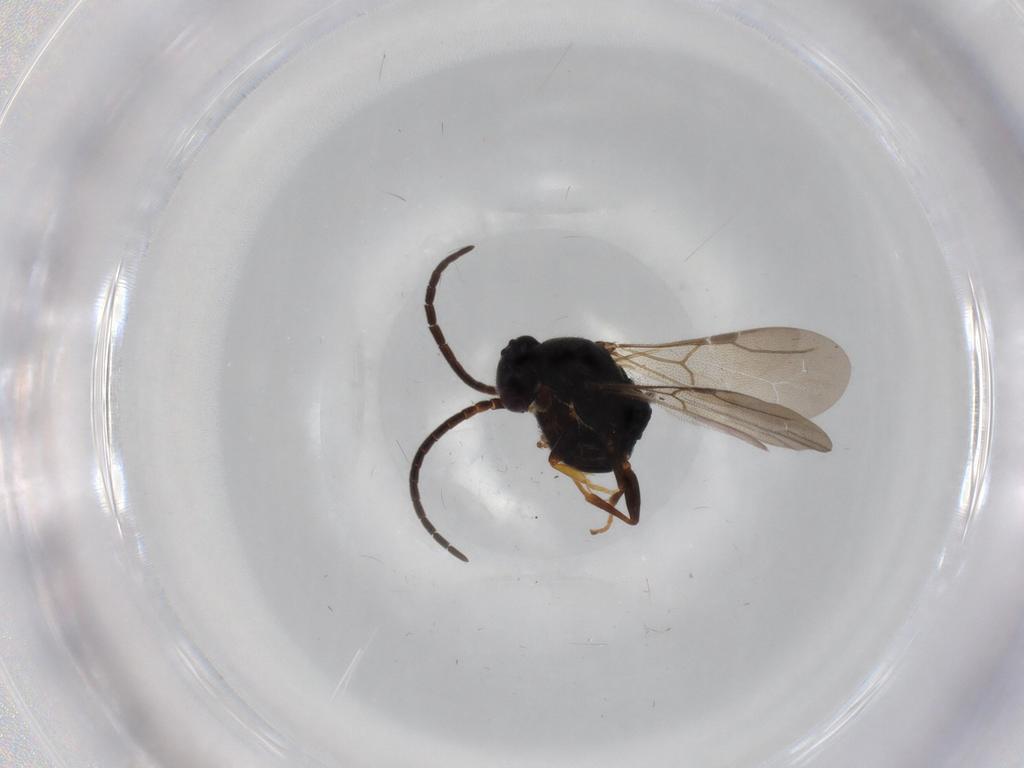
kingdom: Animalia
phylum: Arthropoda
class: Insecta
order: Hymenoptera
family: Bethylidae
